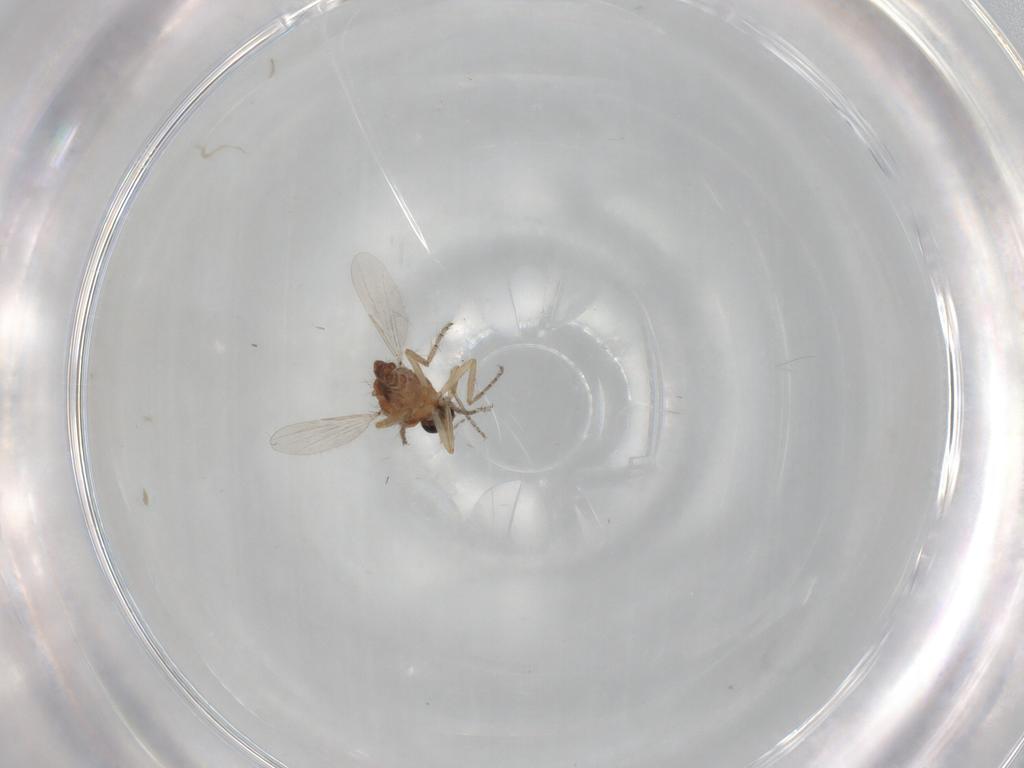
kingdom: Animalia
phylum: Arthropoda
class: Insecta
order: Diptera
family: Ceratopogonidae
